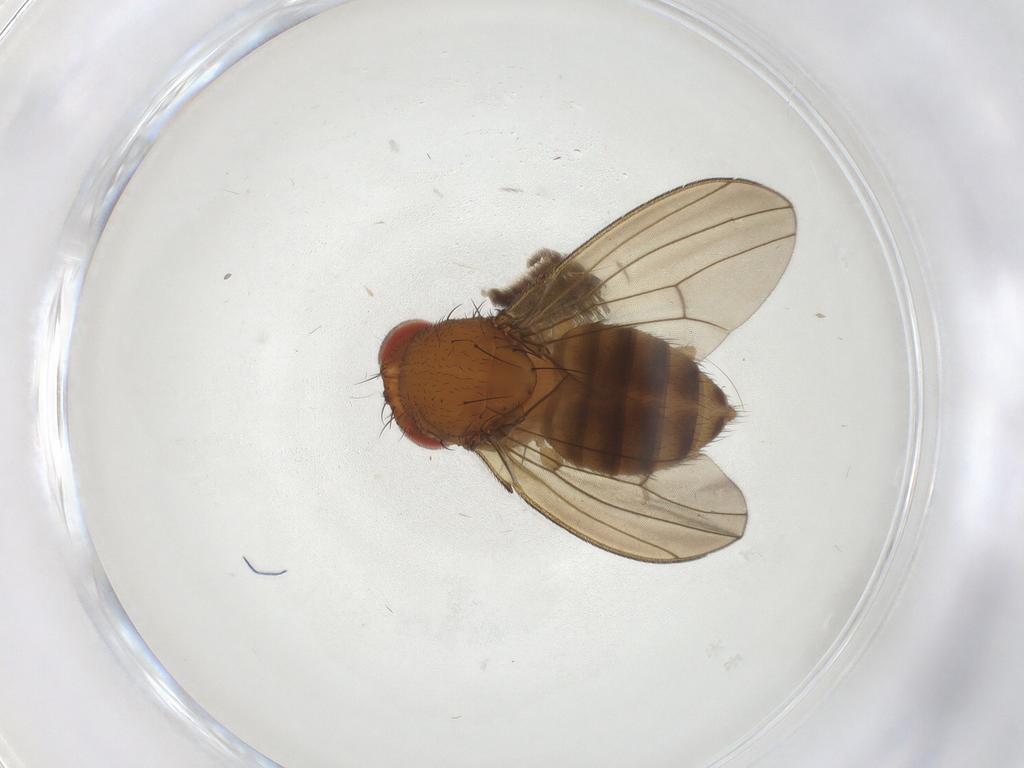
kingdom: Animalia
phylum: Arthropoda
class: Insecta
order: Diptera
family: Drosophilidae
